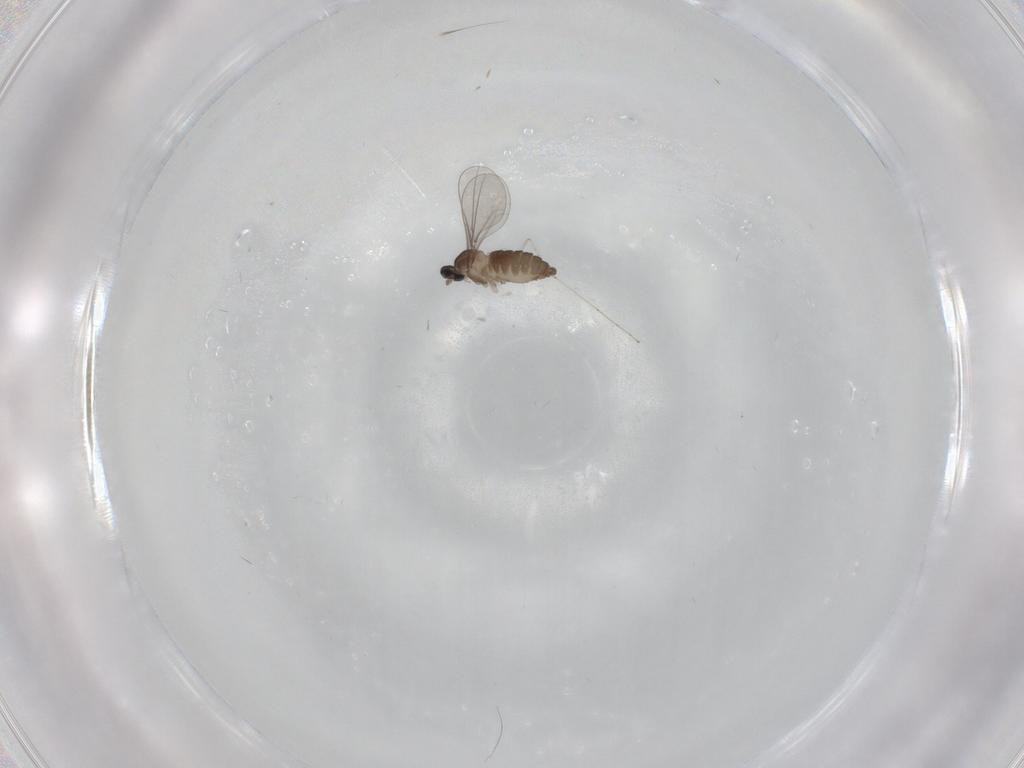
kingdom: Animalia
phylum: Arthropoda
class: Insecta
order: Diptera
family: Cecidomyiidae
